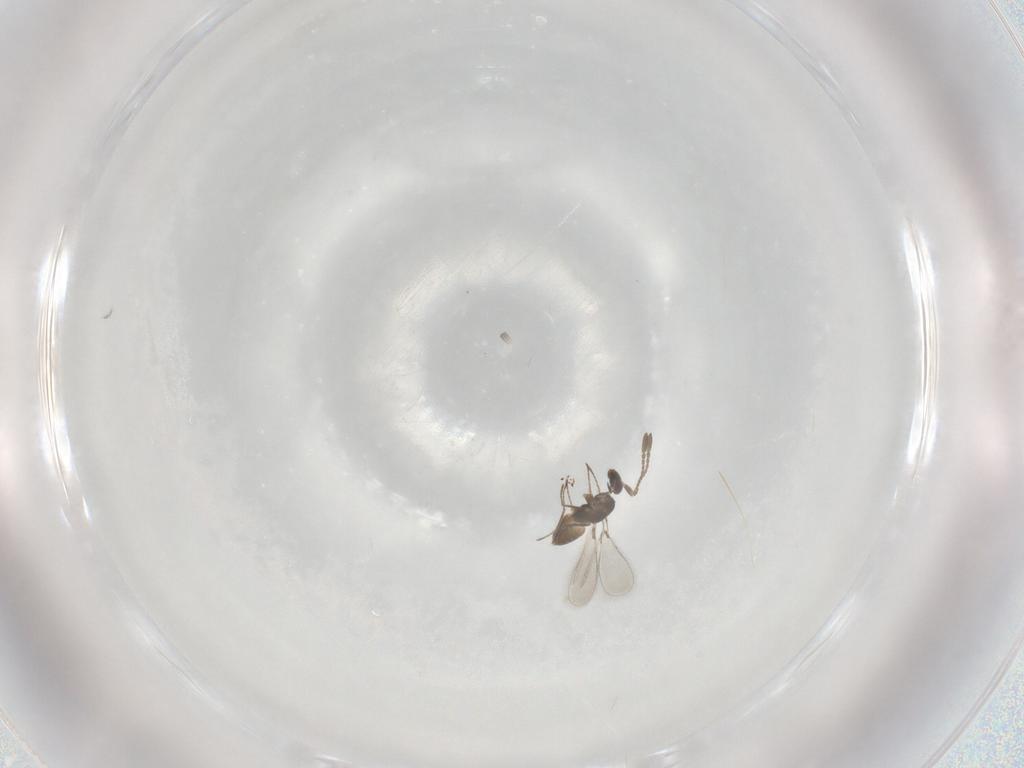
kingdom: Animalia
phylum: Arthropoda
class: Insecta
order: Hymenoptera
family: Mymaridae
